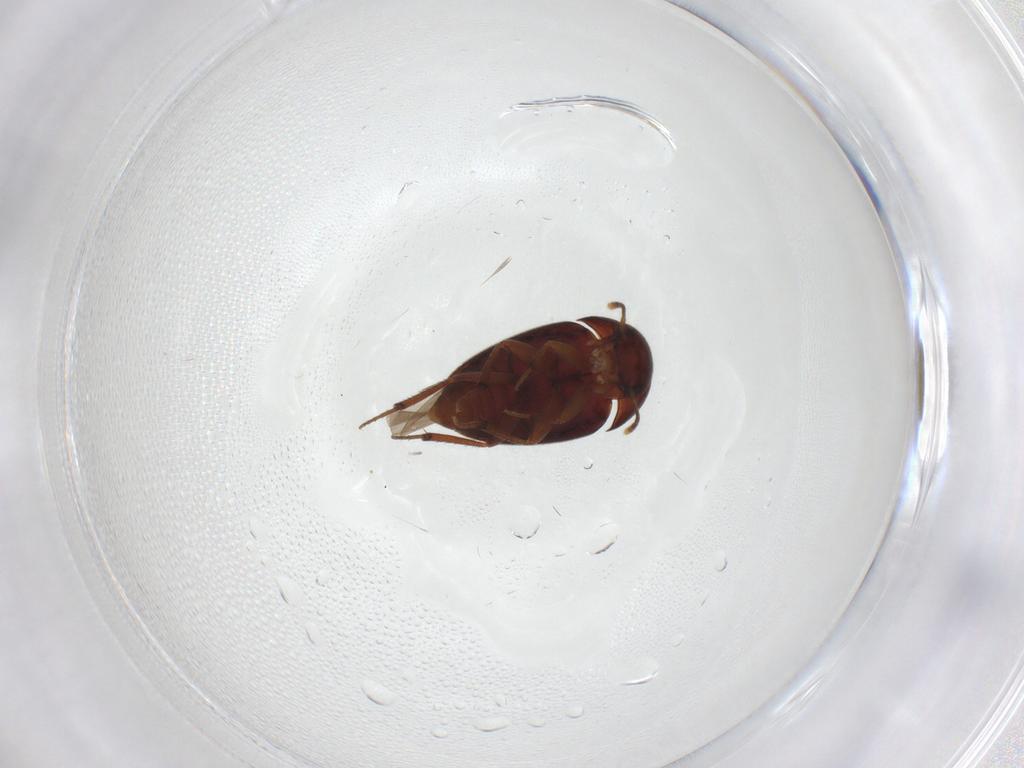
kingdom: Animalia
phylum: Arthropoda
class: Insecta
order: Coleoptera
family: Leiodidae
